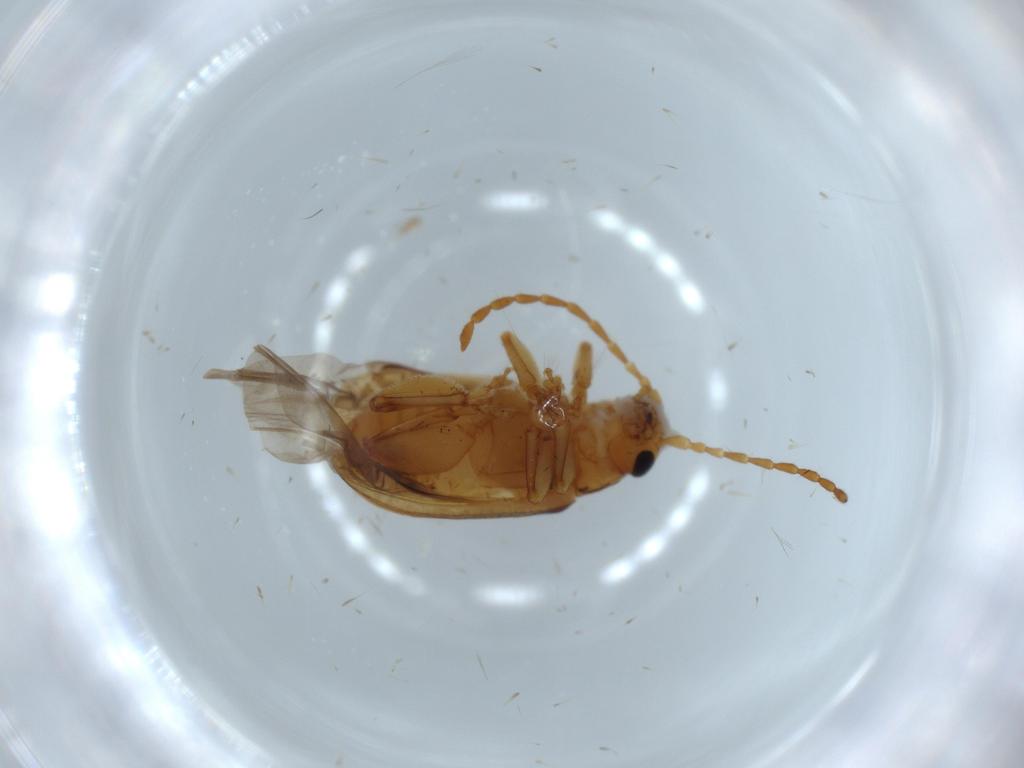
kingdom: Animalia
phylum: Arthropoda
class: Insecta
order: Coleoptera
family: Chrysomelidae
